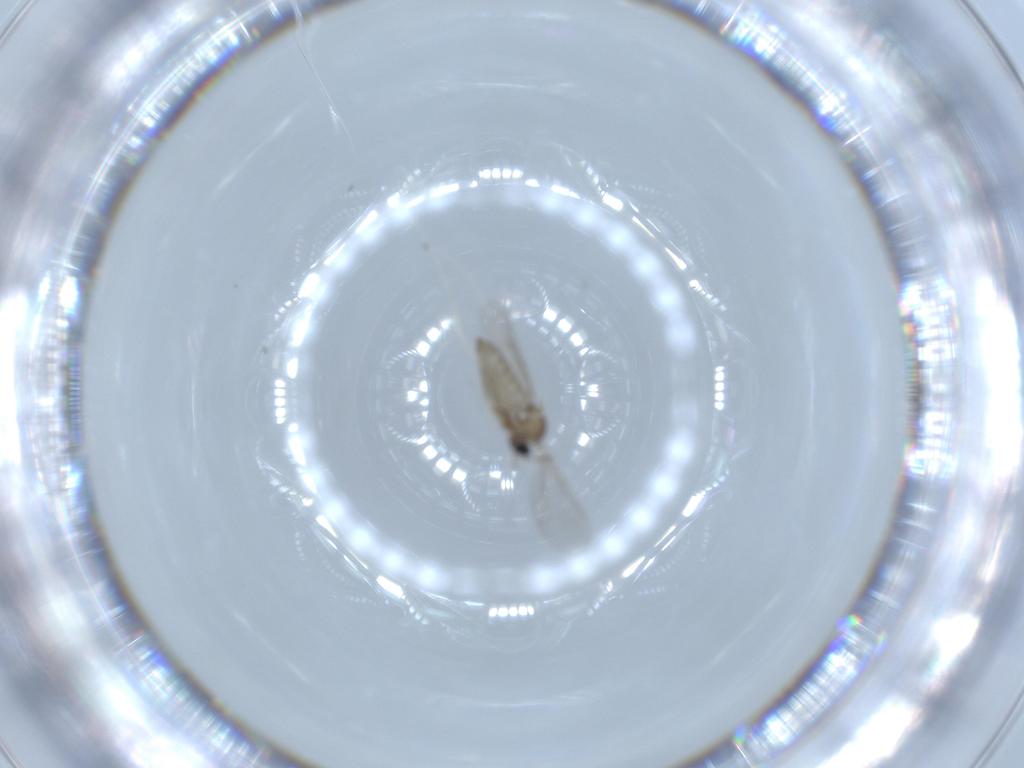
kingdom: Animalia
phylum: Arthropoda
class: Insecta
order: Diptera
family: Cecidomyiidae
